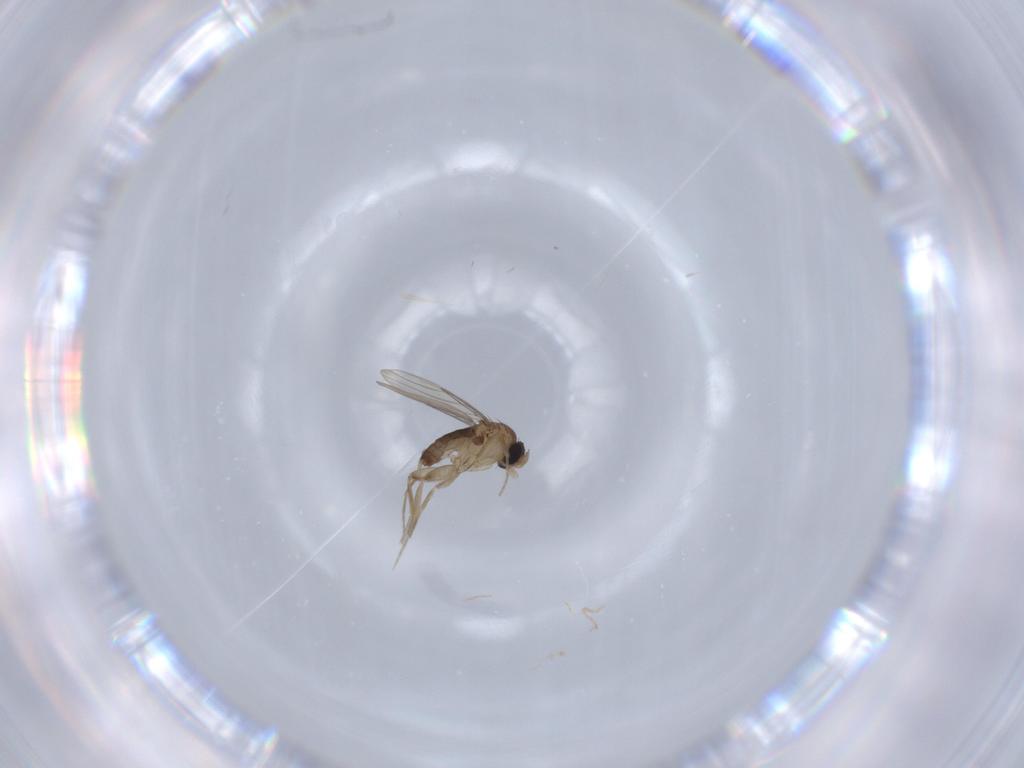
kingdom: Animalia
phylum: Arthropoda
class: Insecta
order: Diptera
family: Phoridae
